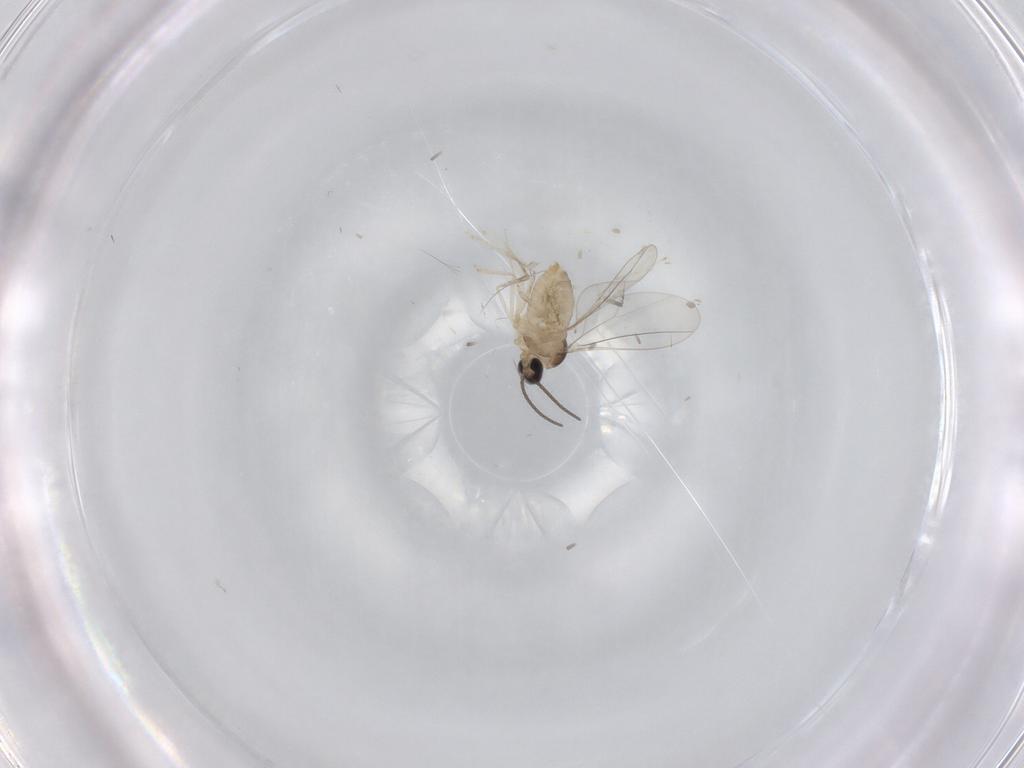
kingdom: Animalia
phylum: Arthropoda
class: Insecta
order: Diptera
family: Cecidomyiidae
